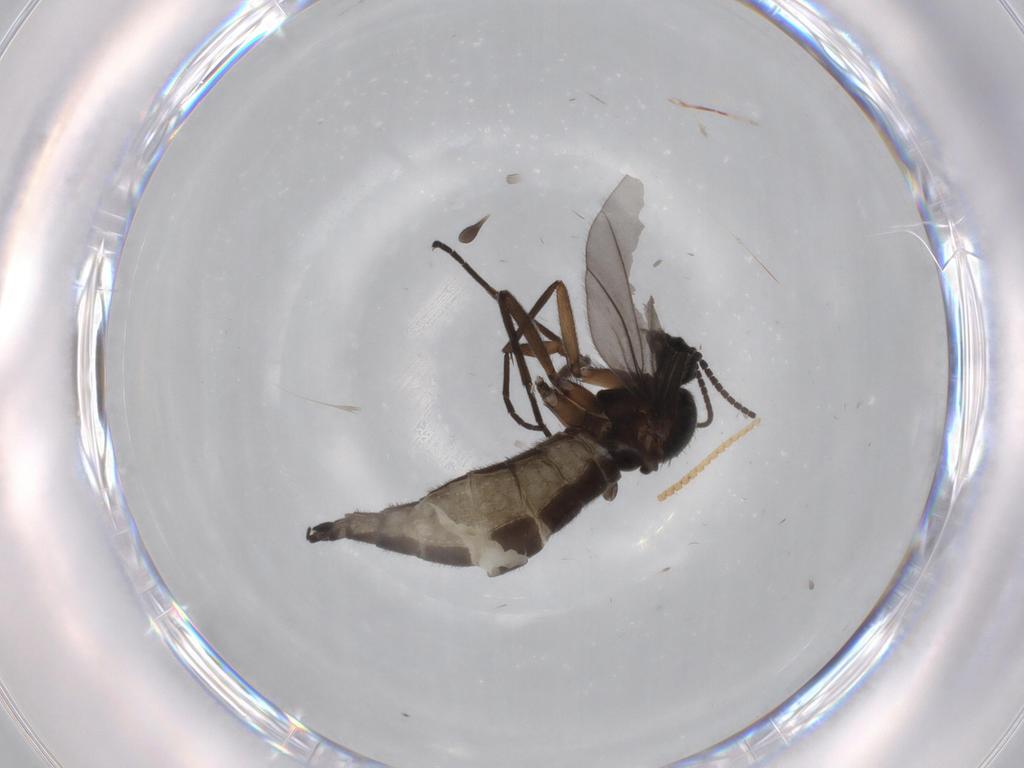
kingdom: Animalia
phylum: Arthropoda
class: Insecta
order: Diptera
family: Sciaridae
